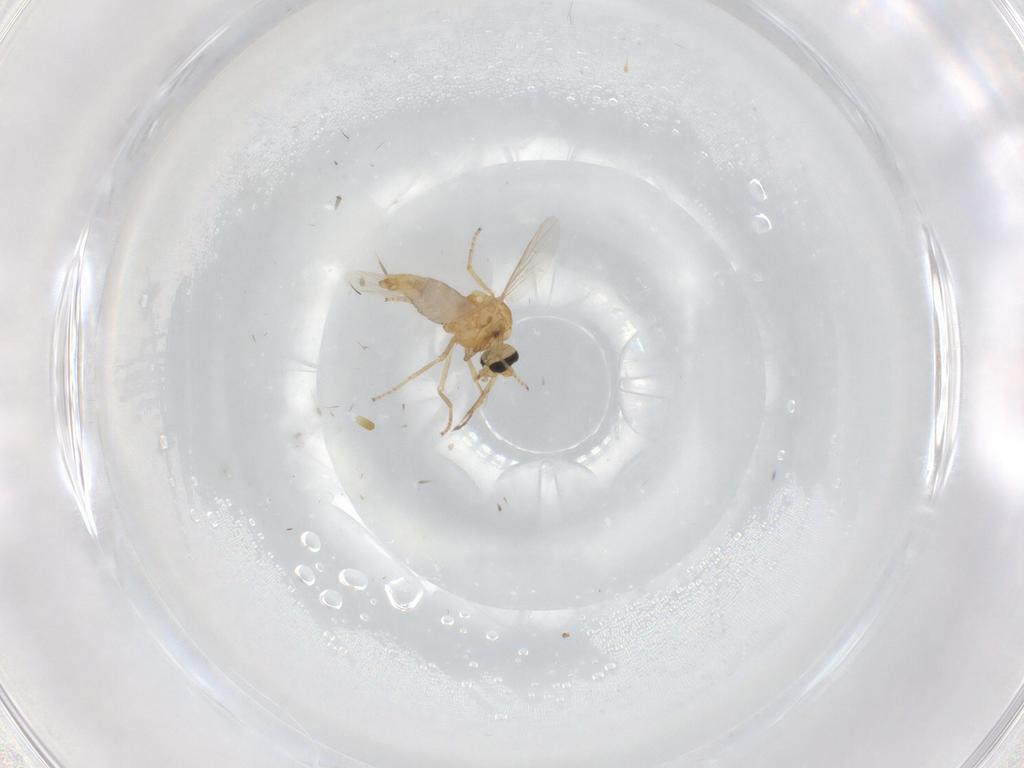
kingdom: Animalia
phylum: Arthropoda
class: Insecta
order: Diptera
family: Ceratopogonidae
